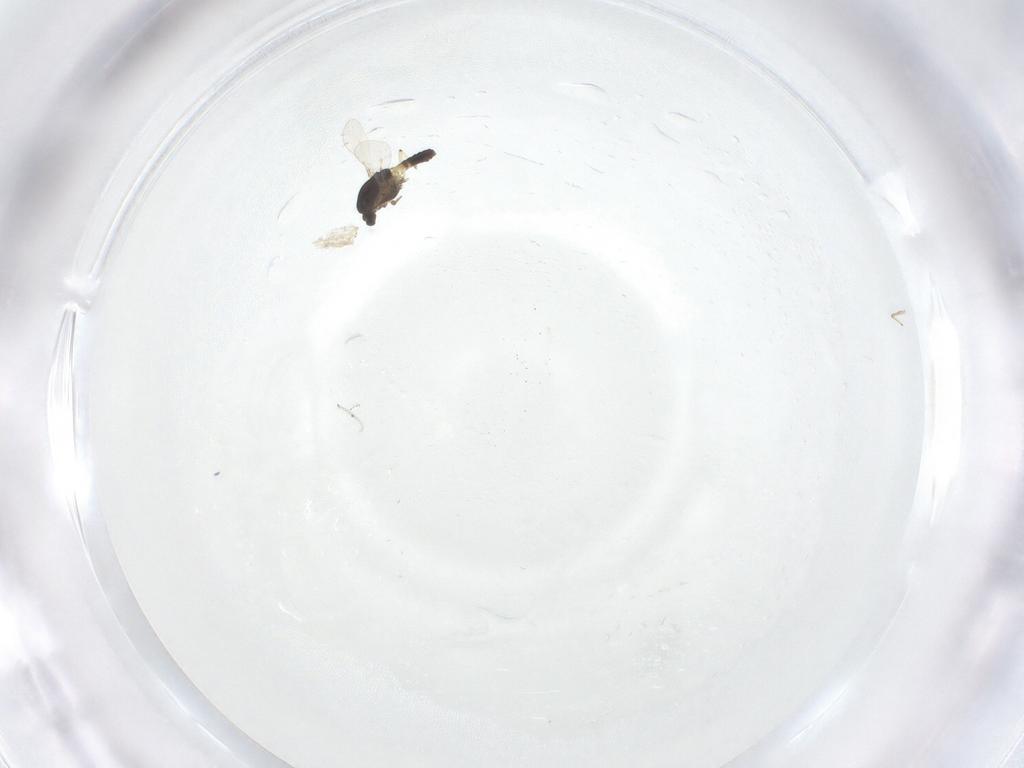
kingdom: Animalia
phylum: Arthropoda
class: Insecta
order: Diptera
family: Chironomidae
